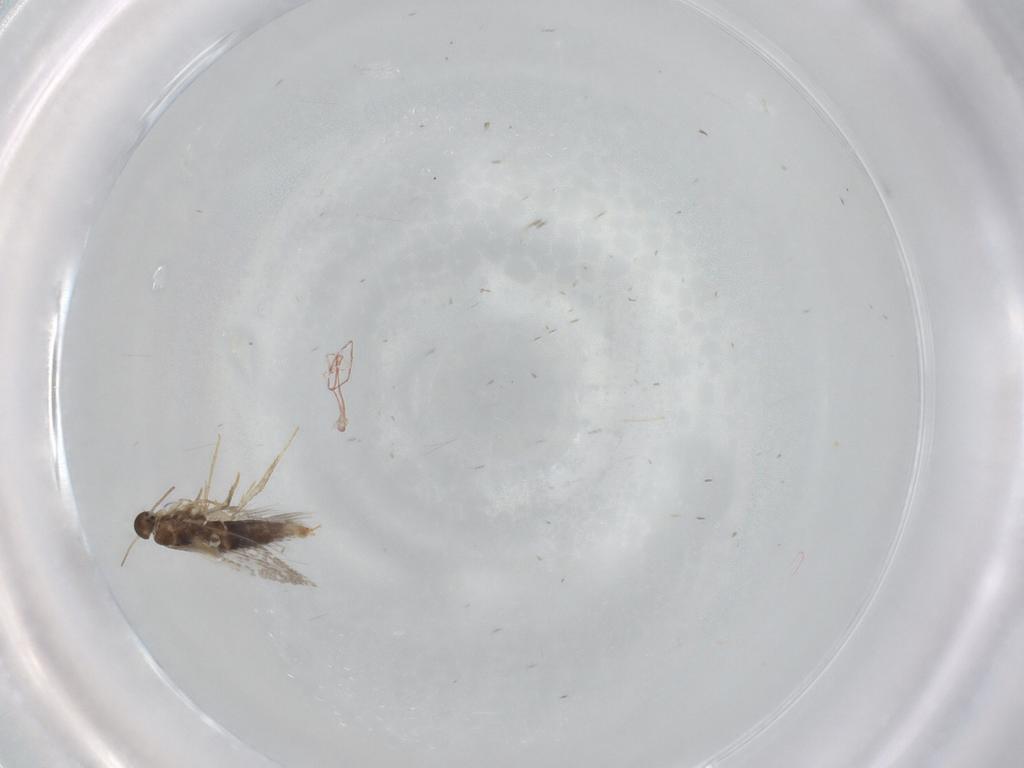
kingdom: Animalia
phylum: Arthropoda
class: Insecta
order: Lepidoptera
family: Heliozelidae
